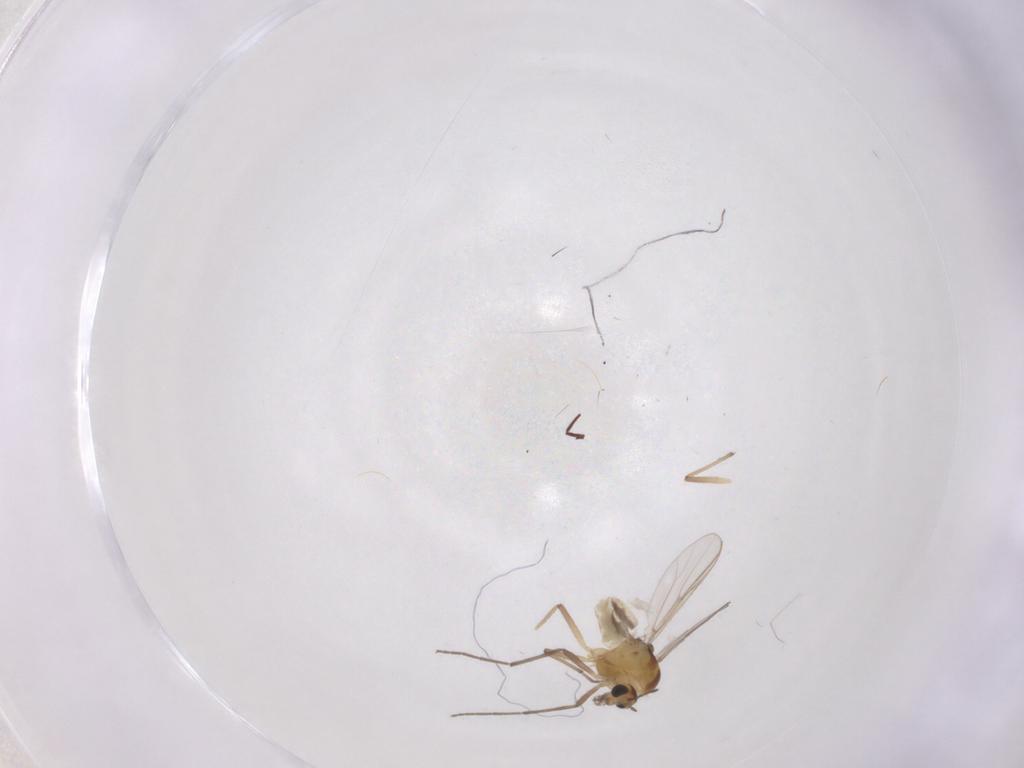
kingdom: Animalia
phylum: Arthropoda
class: Insecta
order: Diptera
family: Chironomidae
